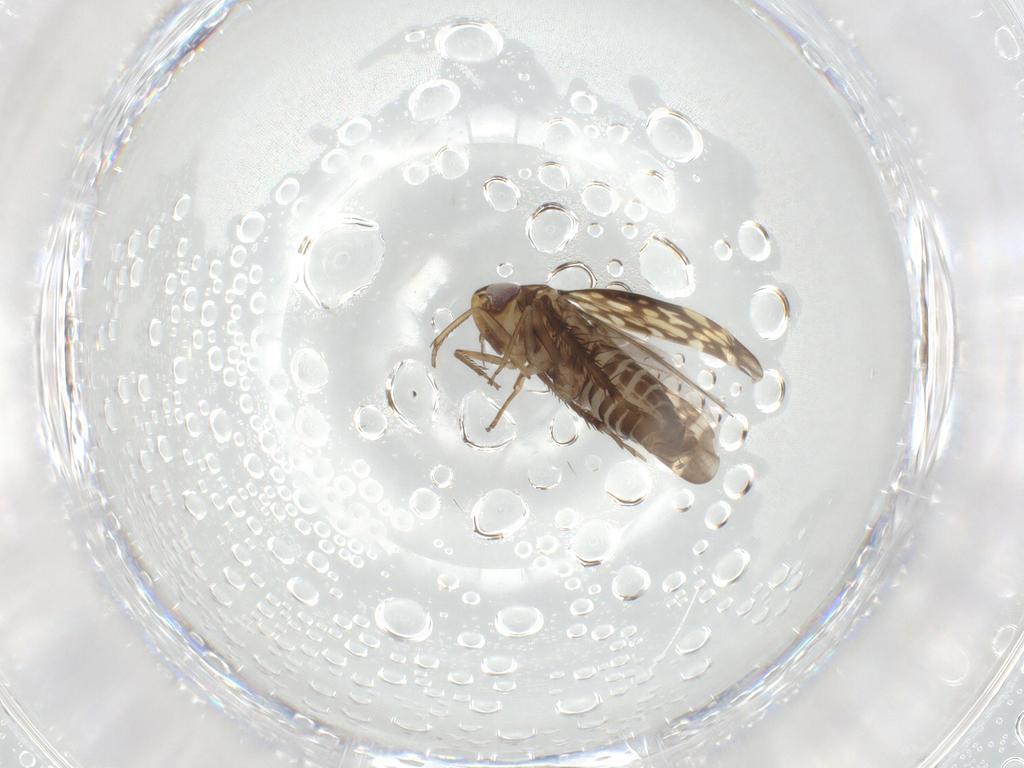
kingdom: Animalia
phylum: Arthropoda
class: Insecta
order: Hemiptera
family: Cicadellidae
